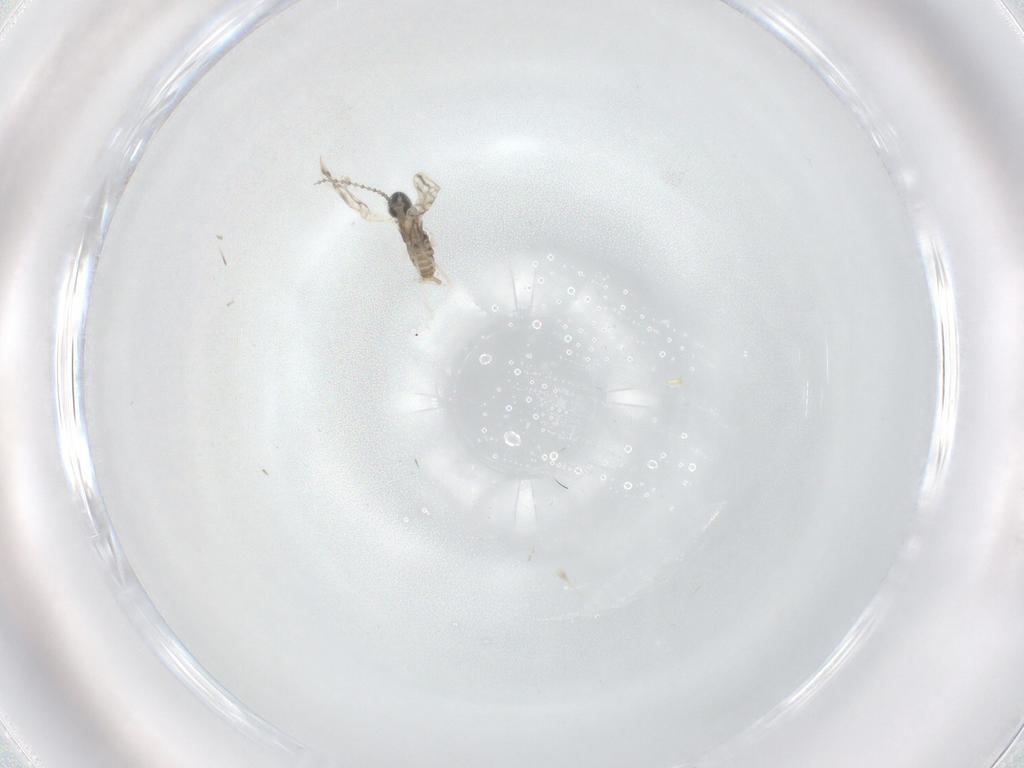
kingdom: Animalia
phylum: Arthropoda
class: Insecta
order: Diptera
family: Cecidomyiidae
